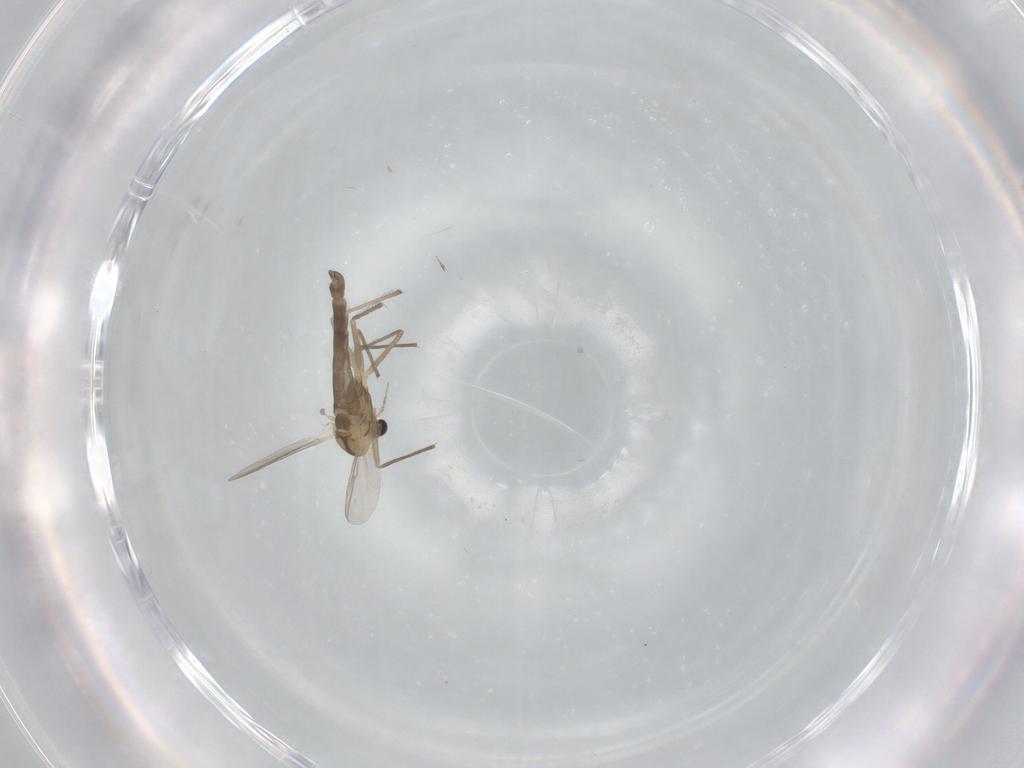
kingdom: Animalia
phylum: Arthropoda
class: Insecta
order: Diptera
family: Chironomidae
